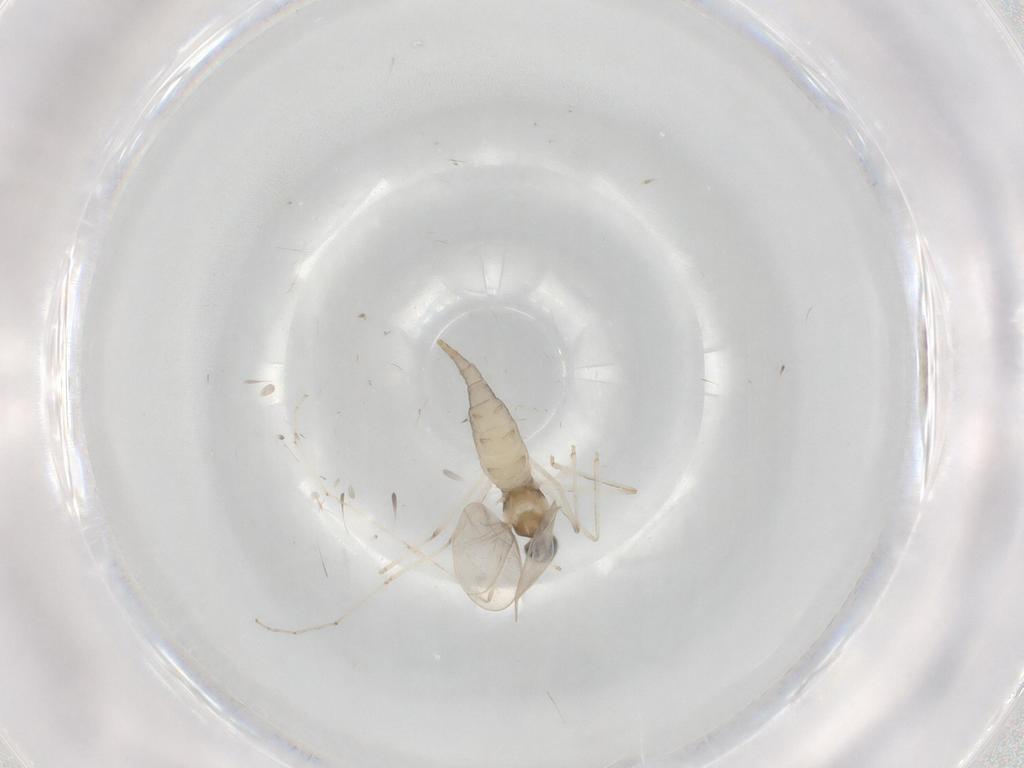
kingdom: Animalia
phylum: Arthropoda
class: Insecta
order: Diptera
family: Cecidomyiidae
